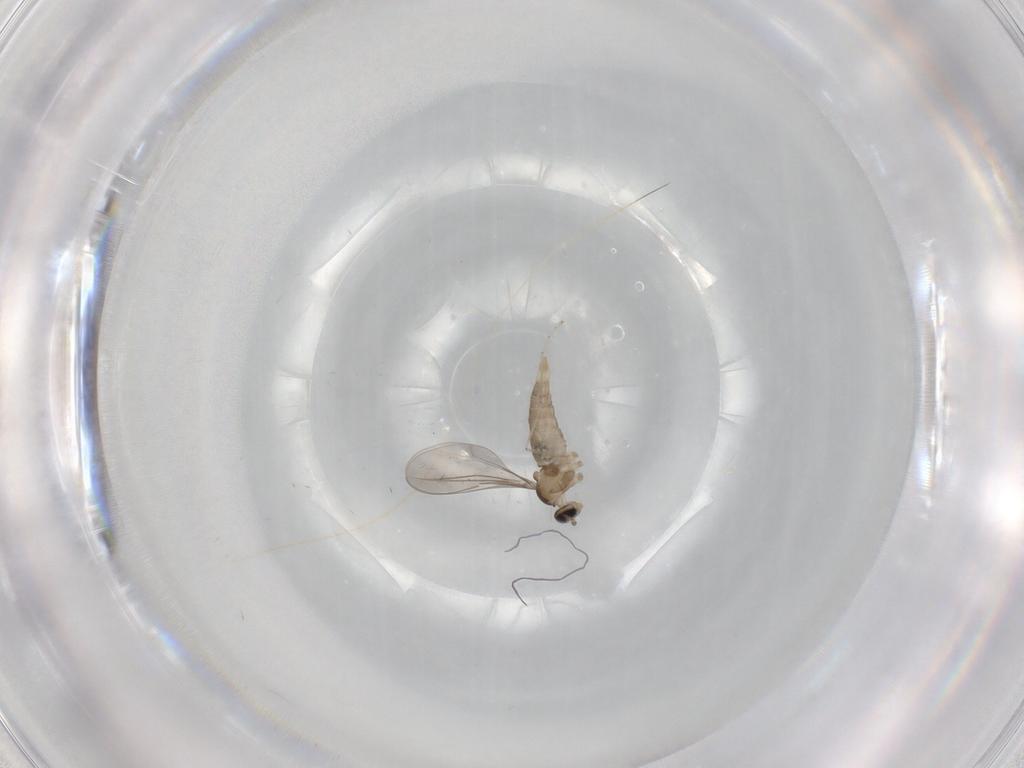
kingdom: Animalia
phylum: Arthropoda
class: Insecta
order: Diptera
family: Cecidomyiidae
